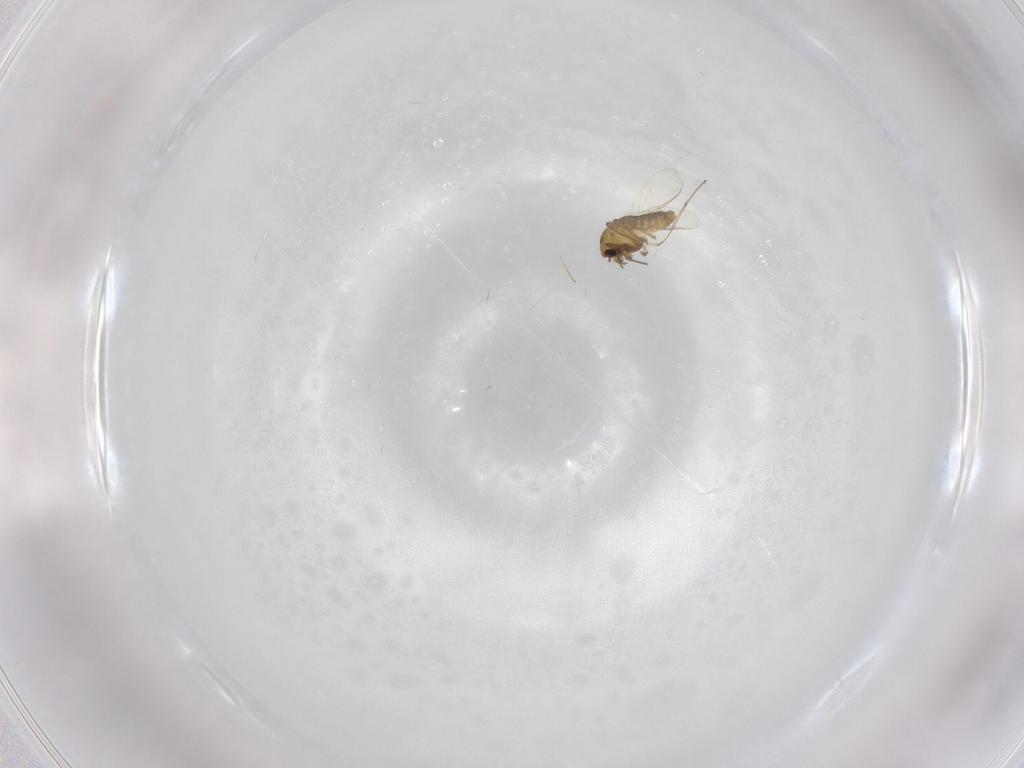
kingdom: Animalia
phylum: Arthropoda
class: Insecta
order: Diptera
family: Chironomidae
